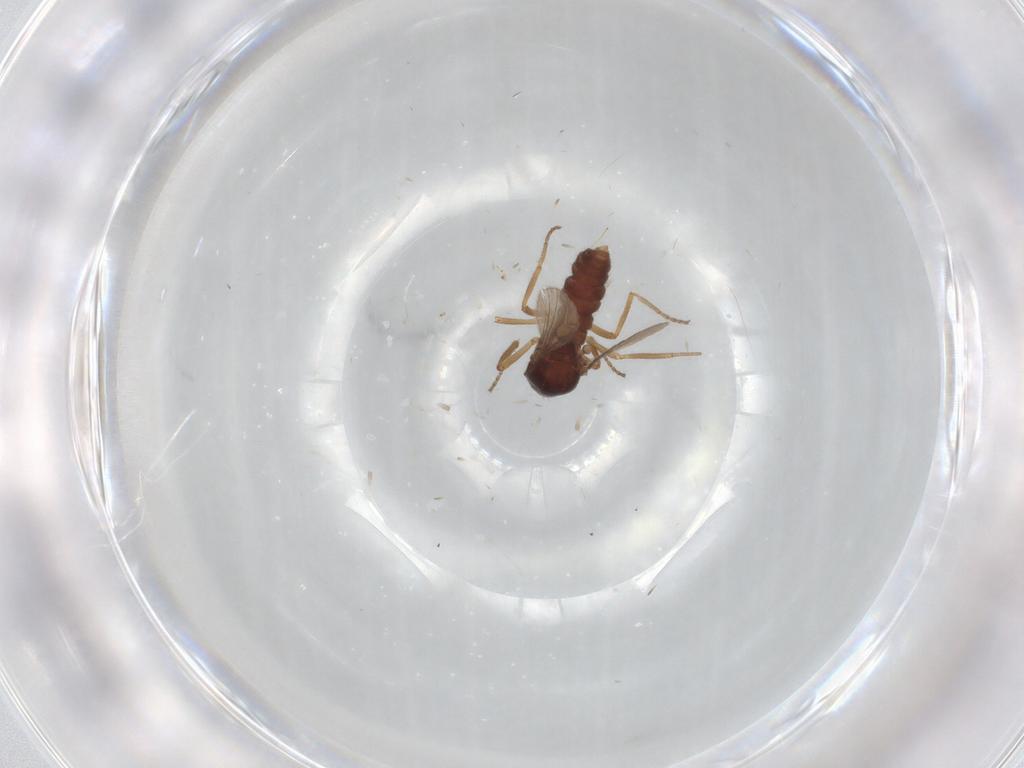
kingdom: Animalia
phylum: Arthropoda
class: Insecta
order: Diptera
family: Ceratopogonidae
